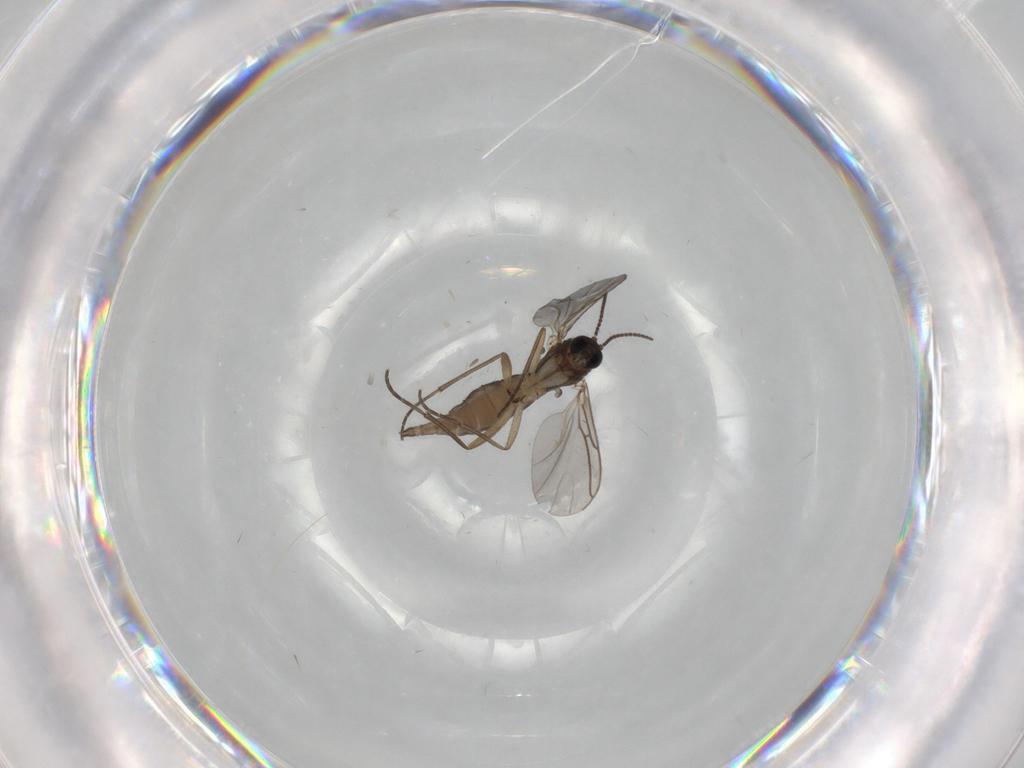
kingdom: Animalia
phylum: Arthropoda
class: Insecta
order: Diptera
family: Sciaridae
